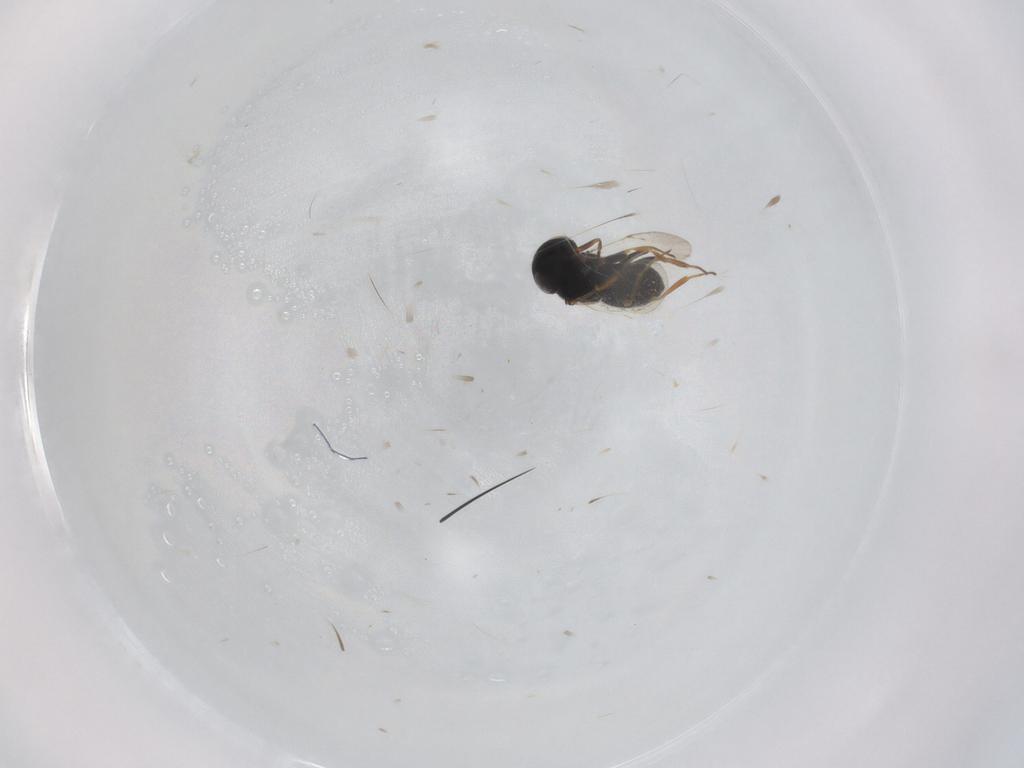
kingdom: Animalia
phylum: Arthropoda
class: Insecta
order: Coleoptera
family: Curculionidae
